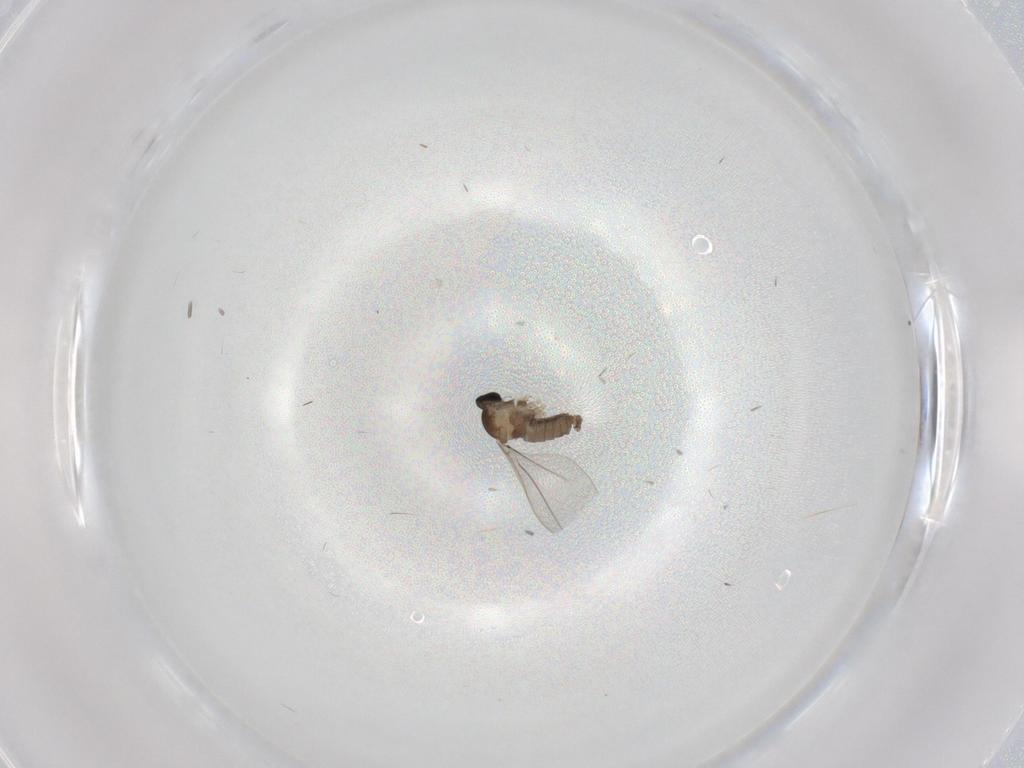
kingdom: Animalia
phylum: Arthropoda
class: Insecta
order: Diptera
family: Cecidomyiidae
